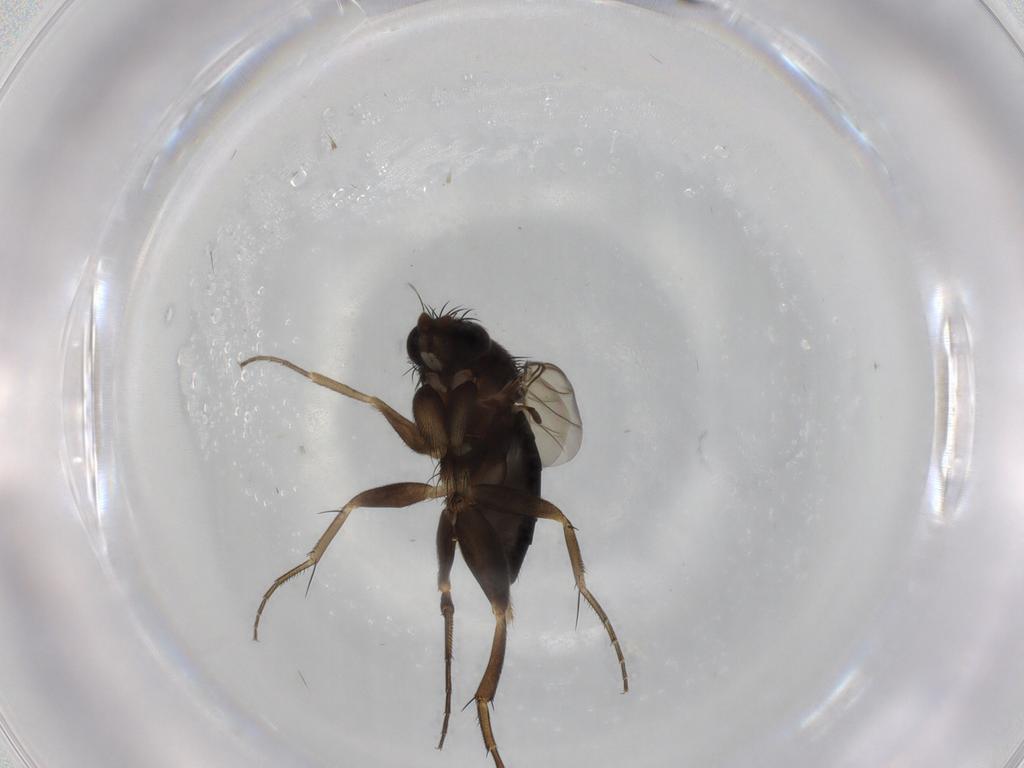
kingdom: Animalia
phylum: Arthropoda
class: Insecta
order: Diptera
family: Phoridae
